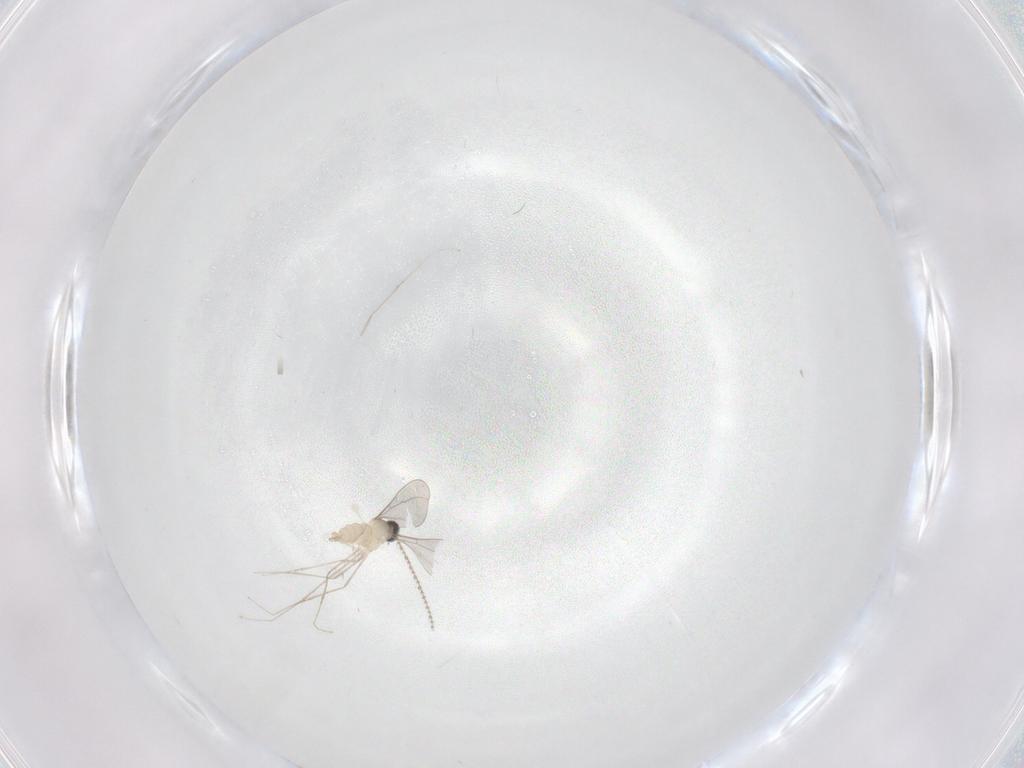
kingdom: Animalia
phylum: Arthropoda
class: Insecta
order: Diptera
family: Cecidomyiidae
